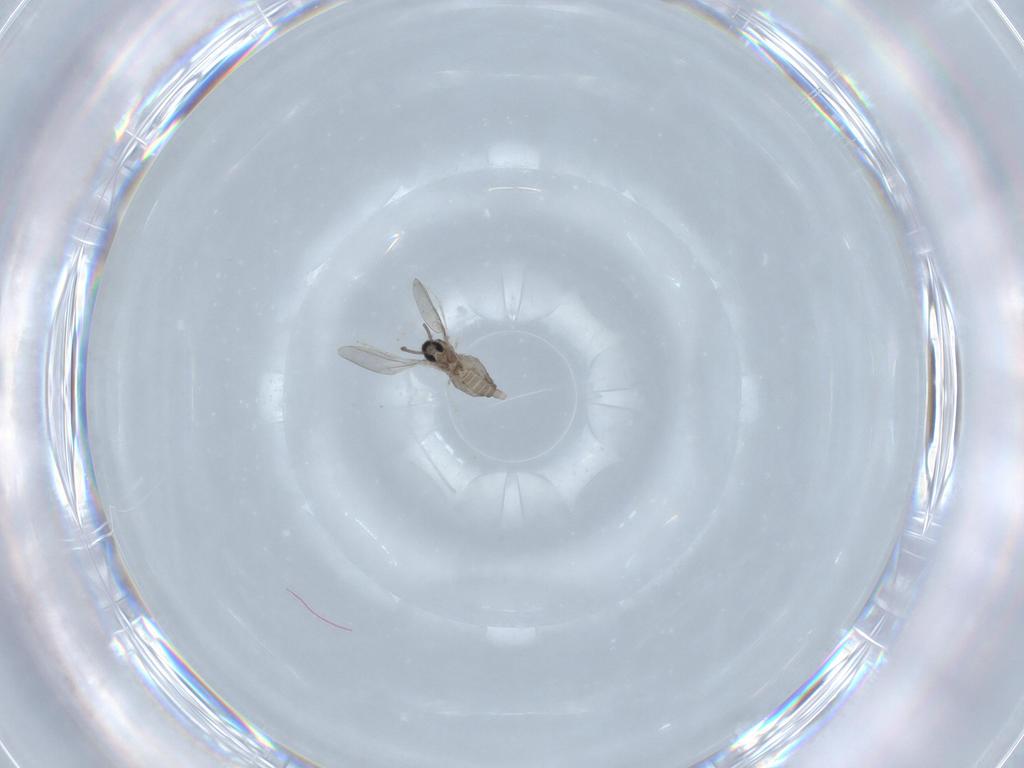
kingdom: Animalia
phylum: Arthropoda
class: Insecta
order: Diptera
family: Cecidomyiidae
